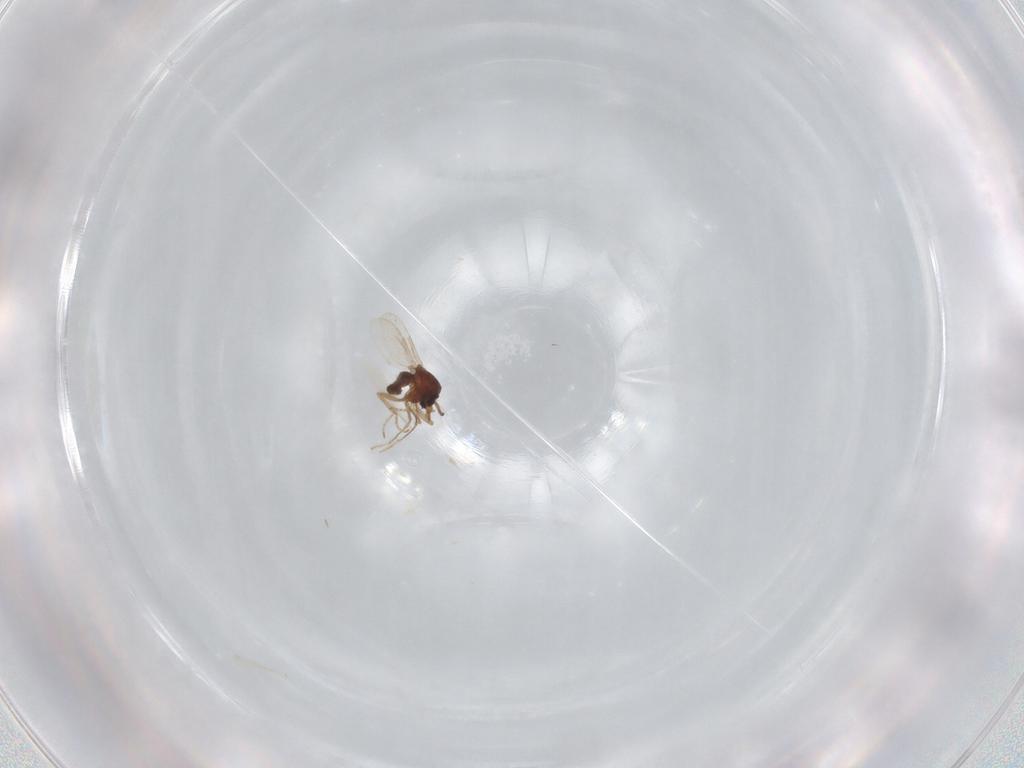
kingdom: Animalia
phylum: Arthropoda
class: Insecta
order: Diptera
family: Ceratopogonidae
